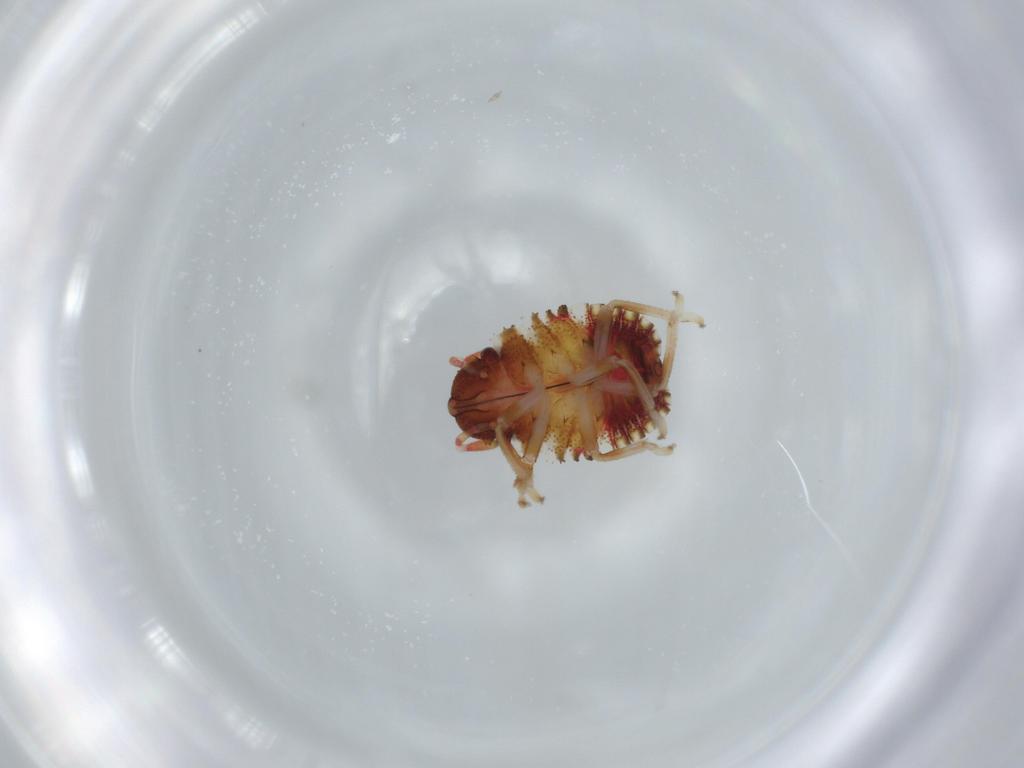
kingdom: Animalia
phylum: Arthropoda
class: Insecta
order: Hemiptera
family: Scutelleridae
